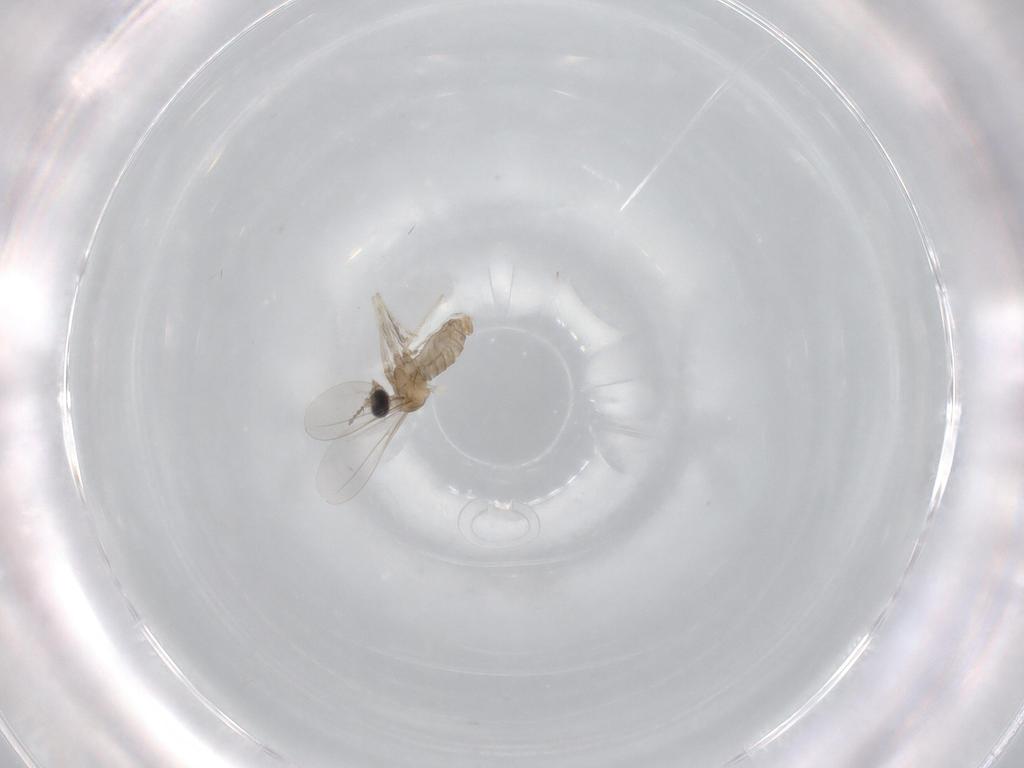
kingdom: Animalia
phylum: Arthropoda
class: Insecta
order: Diptera
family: Cecidomyiidae
